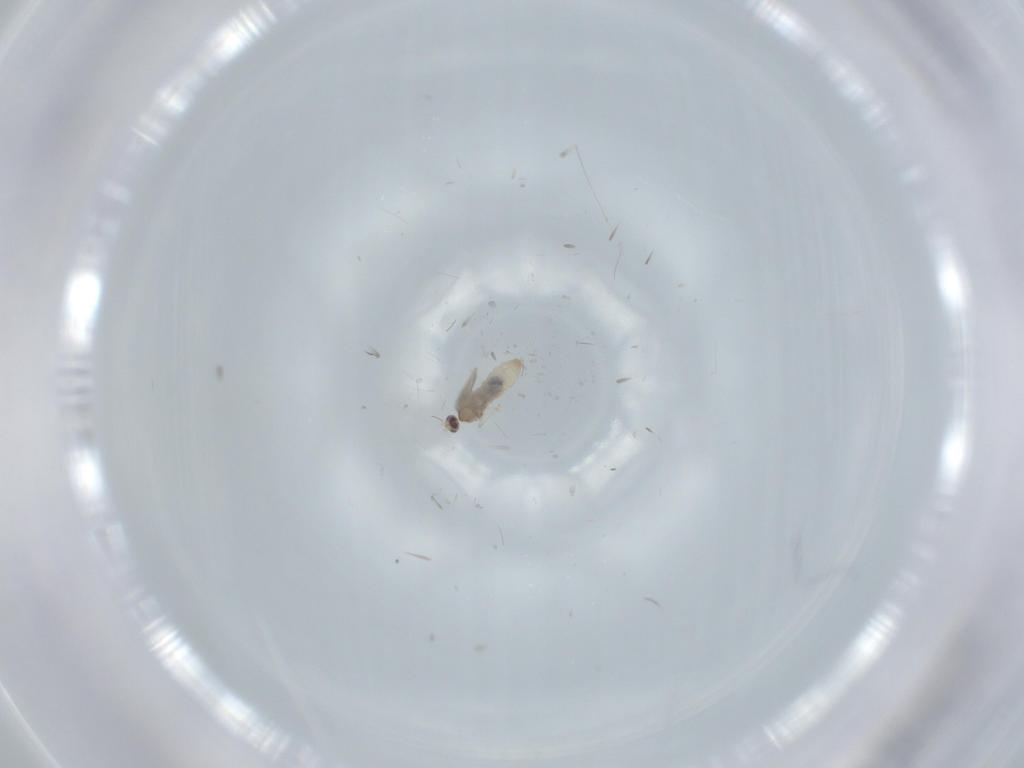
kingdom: Animalia
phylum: Arthropoda
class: Insecta
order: Diptera
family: Cecidomyiidae
